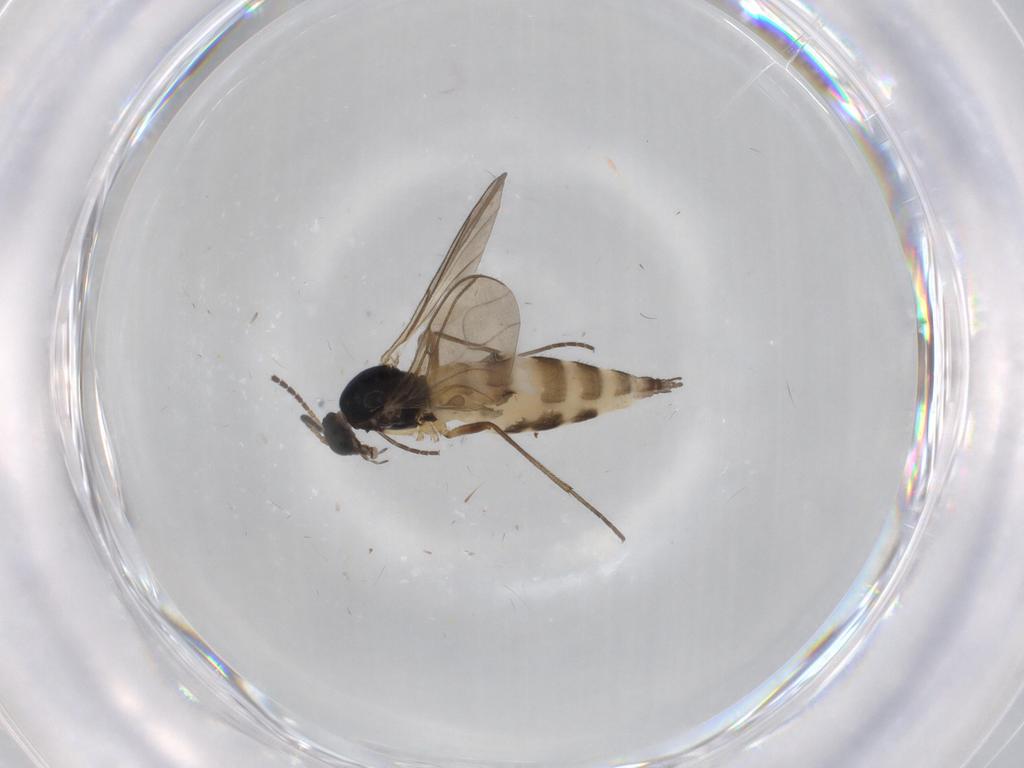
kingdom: Animalia
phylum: Arthropoda
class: Insecta
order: Diptera
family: Sciaridae
